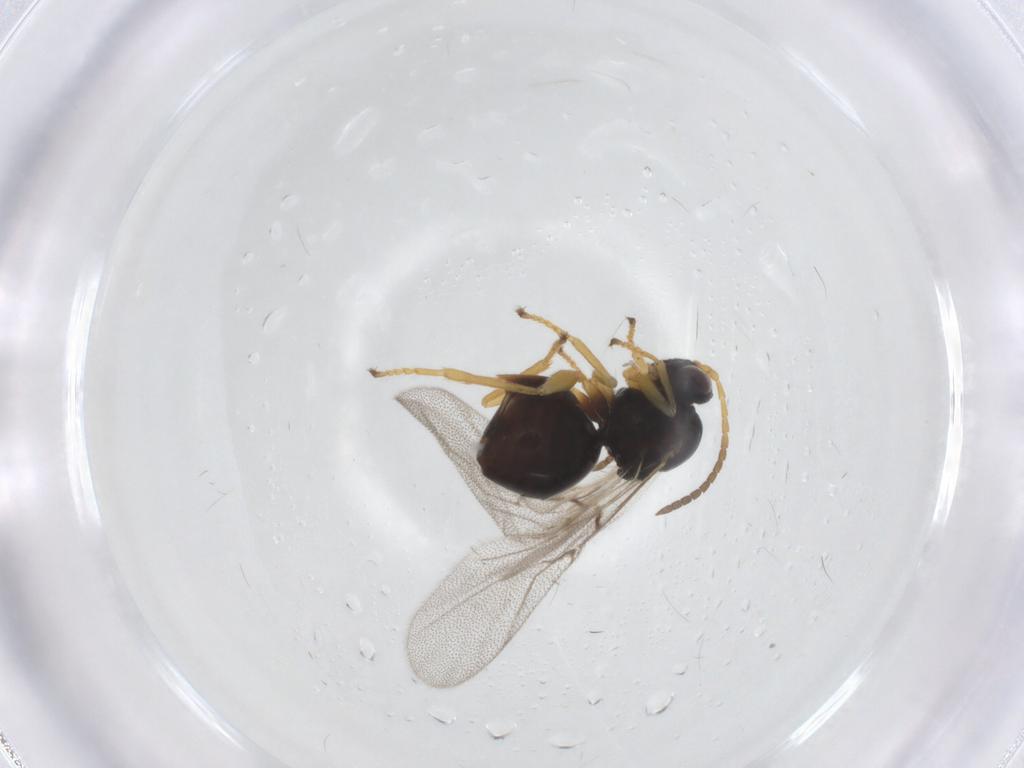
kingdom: Animalia
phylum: Arthropoda
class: Insecta
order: Hymenoptera
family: Cynipidae
